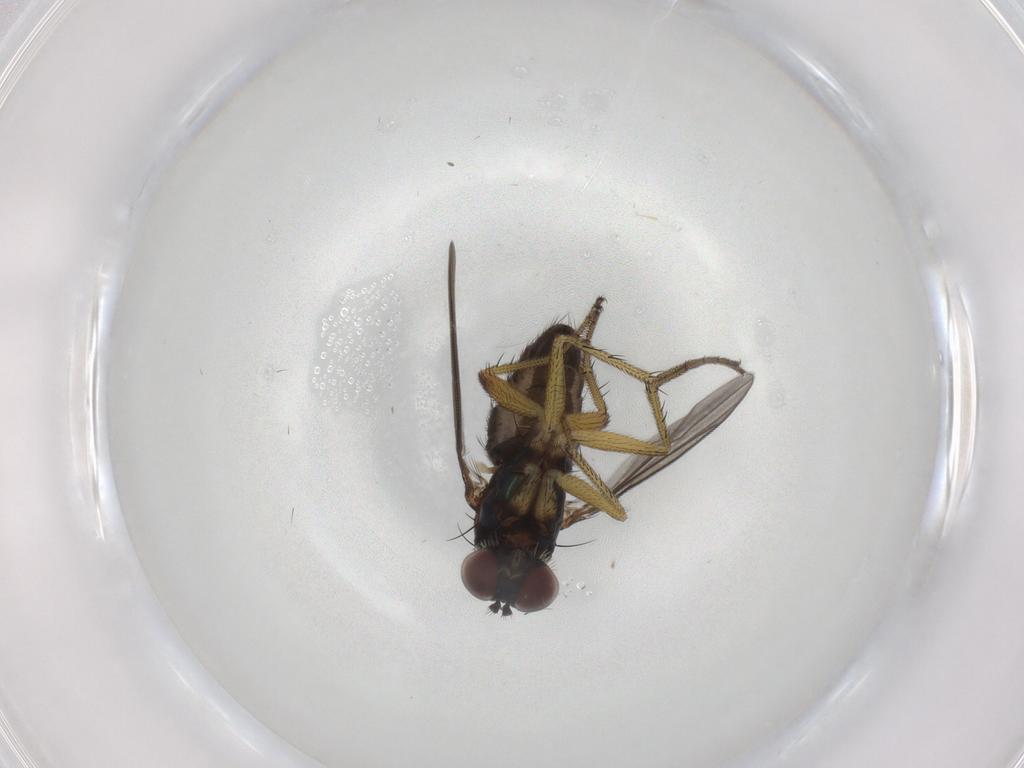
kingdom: Animalia
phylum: Arthropoda
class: Insecta
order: Diptera
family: Dolichopodidae
